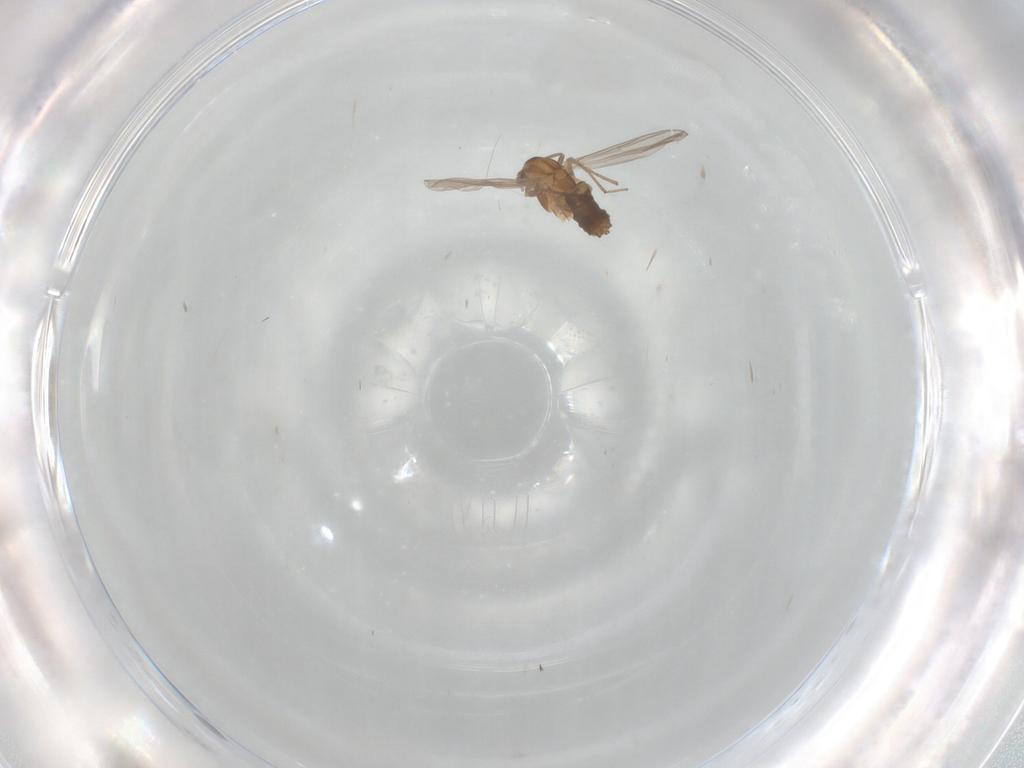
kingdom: Animalia
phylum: Arthropoda
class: Insecta
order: Diptera
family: Chironomidae
